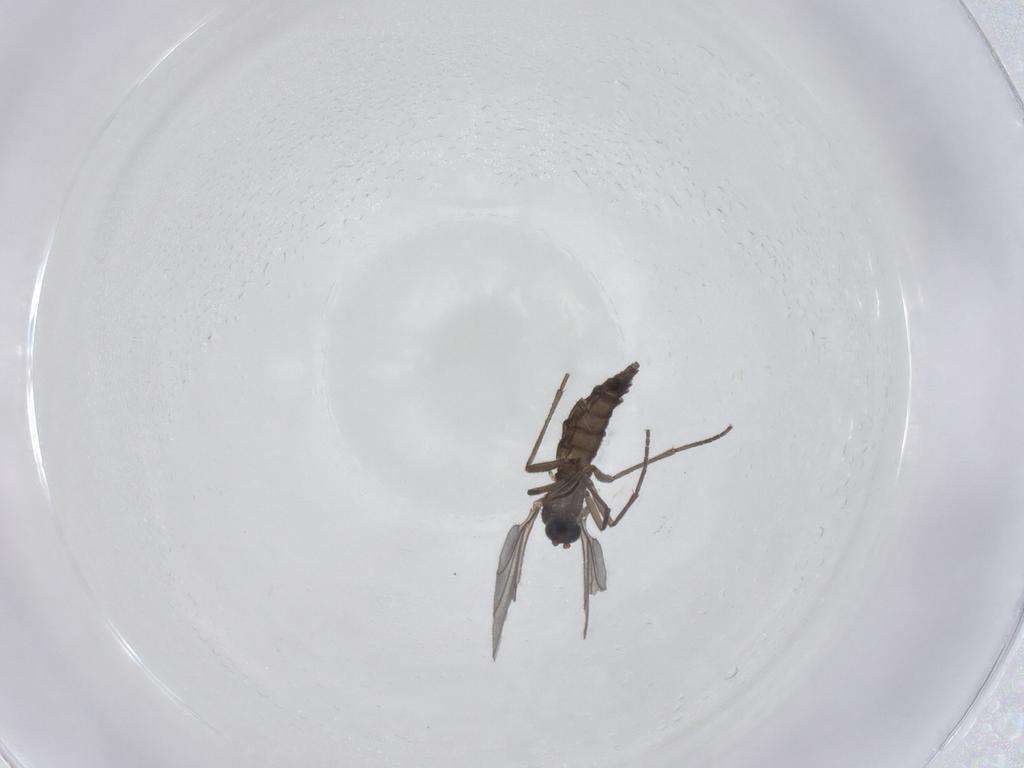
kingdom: Animalia
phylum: Arthropoda
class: Insecta
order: Diptera
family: Sciaridae
